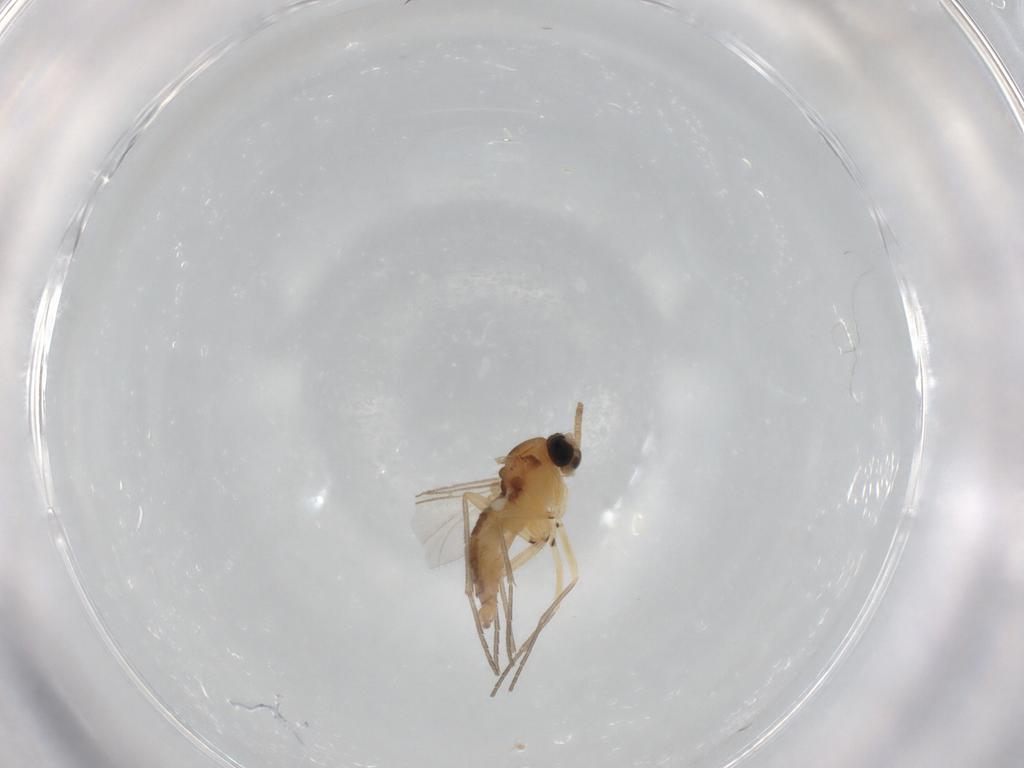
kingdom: Animalia
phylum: Arthropoda
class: Insecta
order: Diptera
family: Sciaridae
